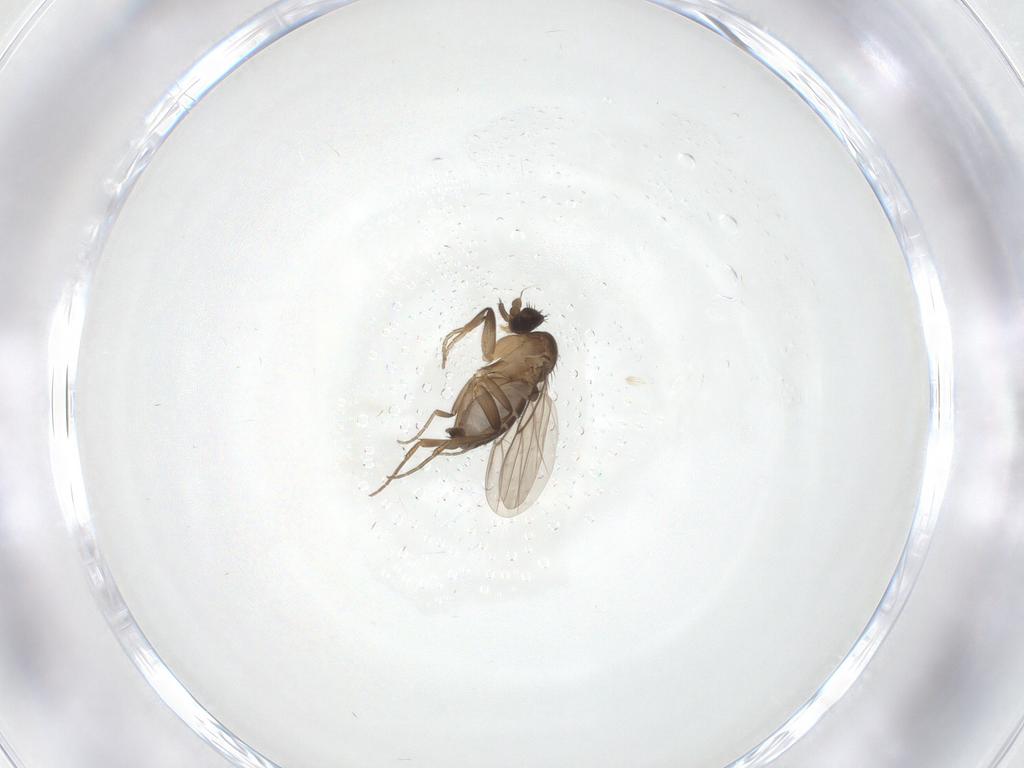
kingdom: Animalia
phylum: Arthropoda
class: Insecta
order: Diptera
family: Phoridae
